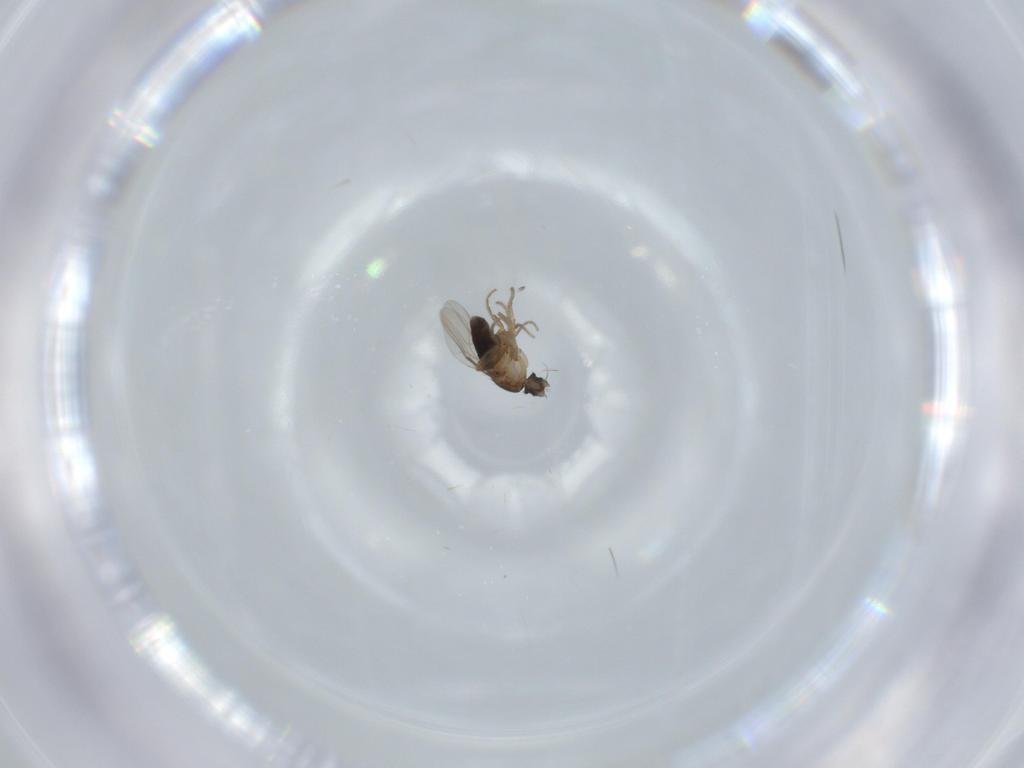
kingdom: Animalia
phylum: Arthropoda
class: Insecta
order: Diptera
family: Phoridae
